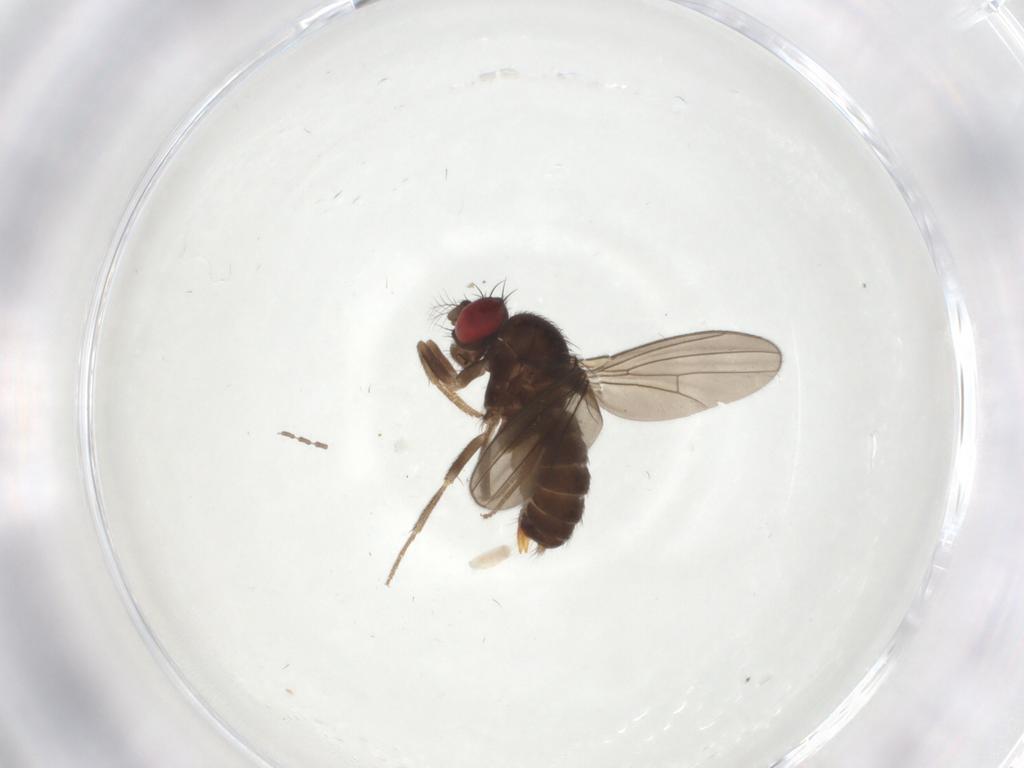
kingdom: Animalia
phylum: Arthropoda
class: Insecta
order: Diptera
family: Drosophilidae
